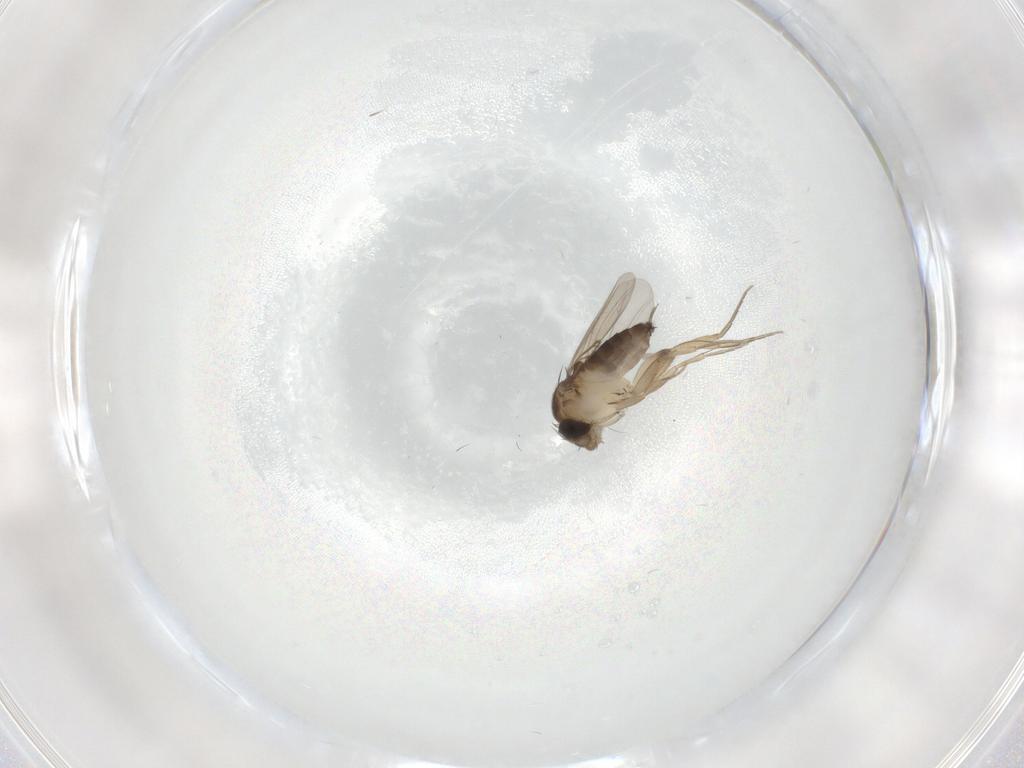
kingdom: Animalia
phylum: Arthropoda
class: Insecta
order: Diptera
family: Phoridae
